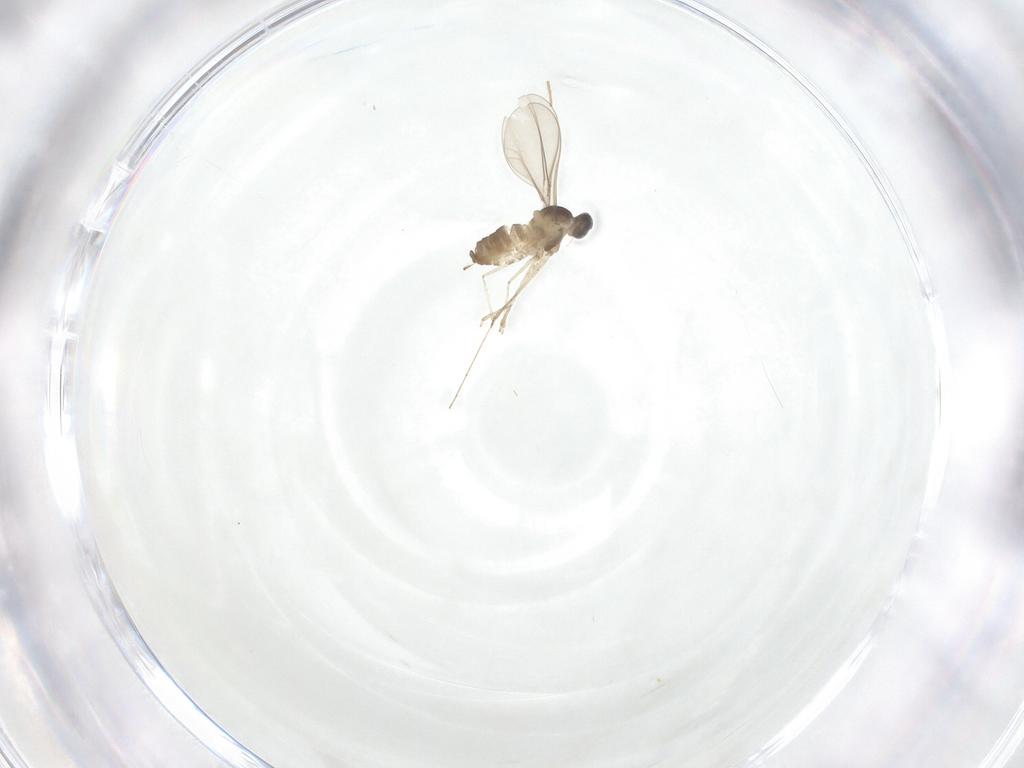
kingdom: Animalia
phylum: Arthropoda
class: Insecta
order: Diptera
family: Cecidomyiidae
